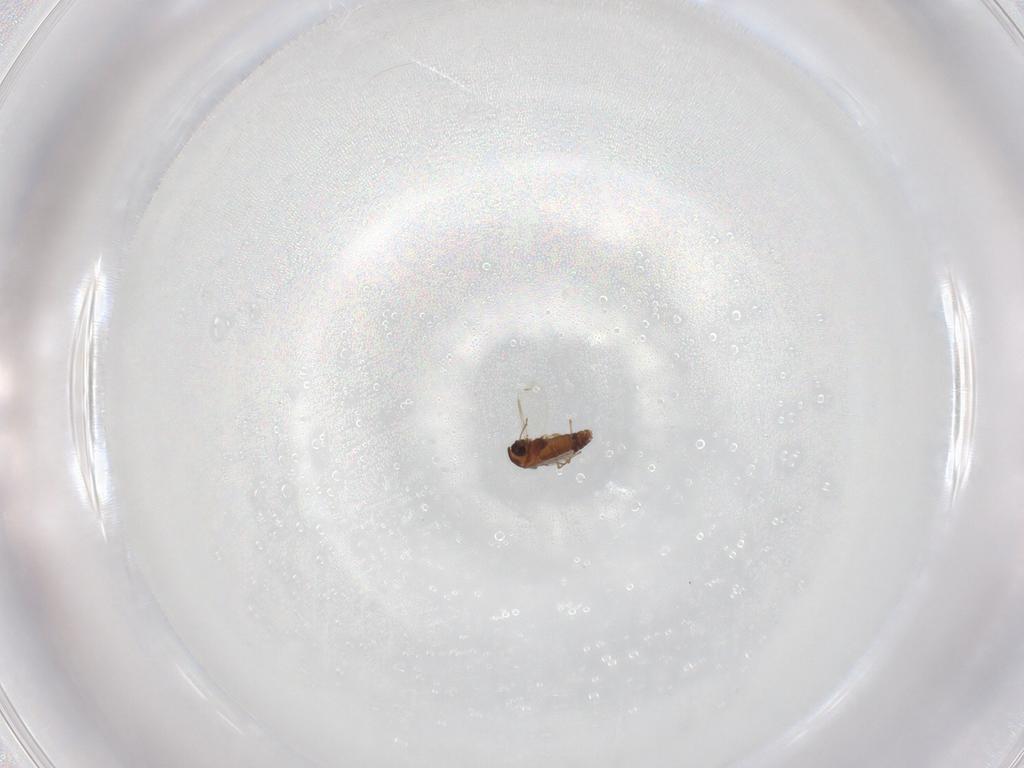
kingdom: Animalia
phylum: Arthropoda
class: Insecta
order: Diptera
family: Chironomidae
